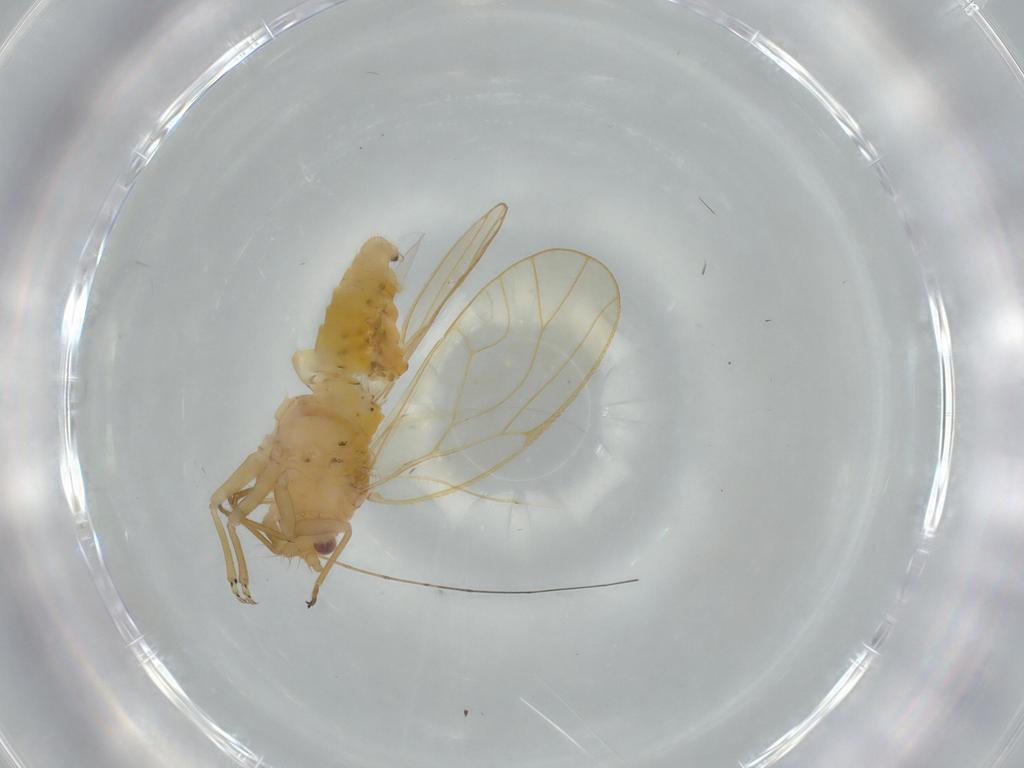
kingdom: Animalia
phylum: Arthropoda
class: Insecta
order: Hemiptera
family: Psyllidae
